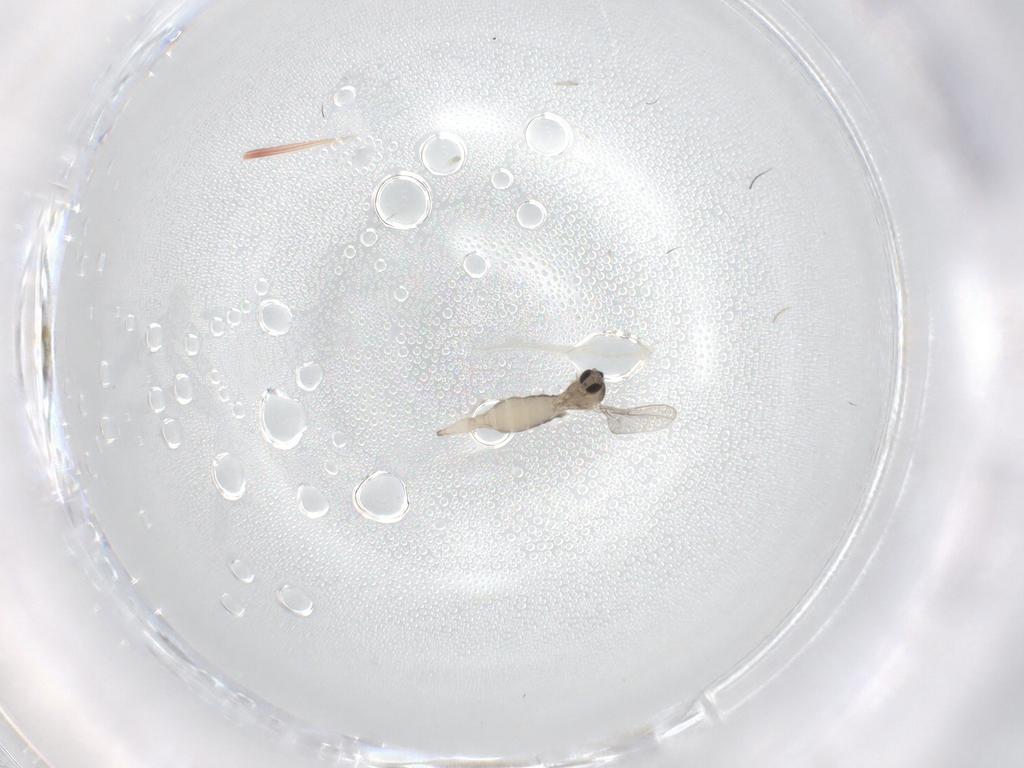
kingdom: Animalia
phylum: Arthropoda
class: Insecta
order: Diptera
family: Cecidomyiidae
